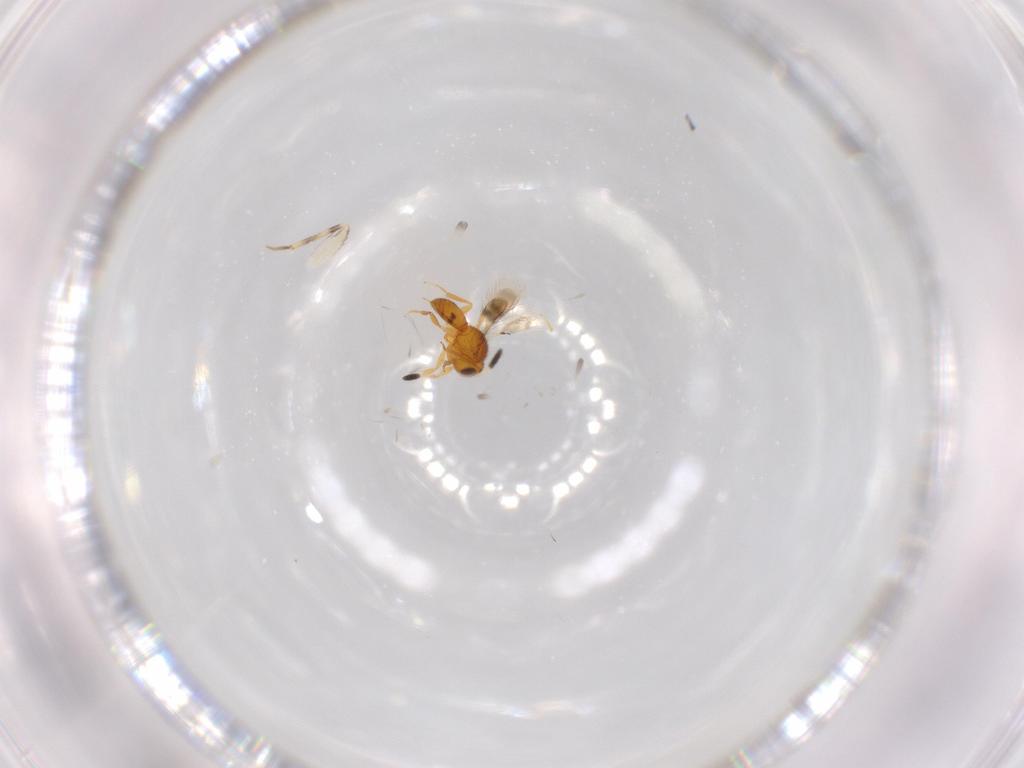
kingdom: Animalia
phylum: Arthropoda
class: Insecta
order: Hymenoptera
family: Scelionidae
